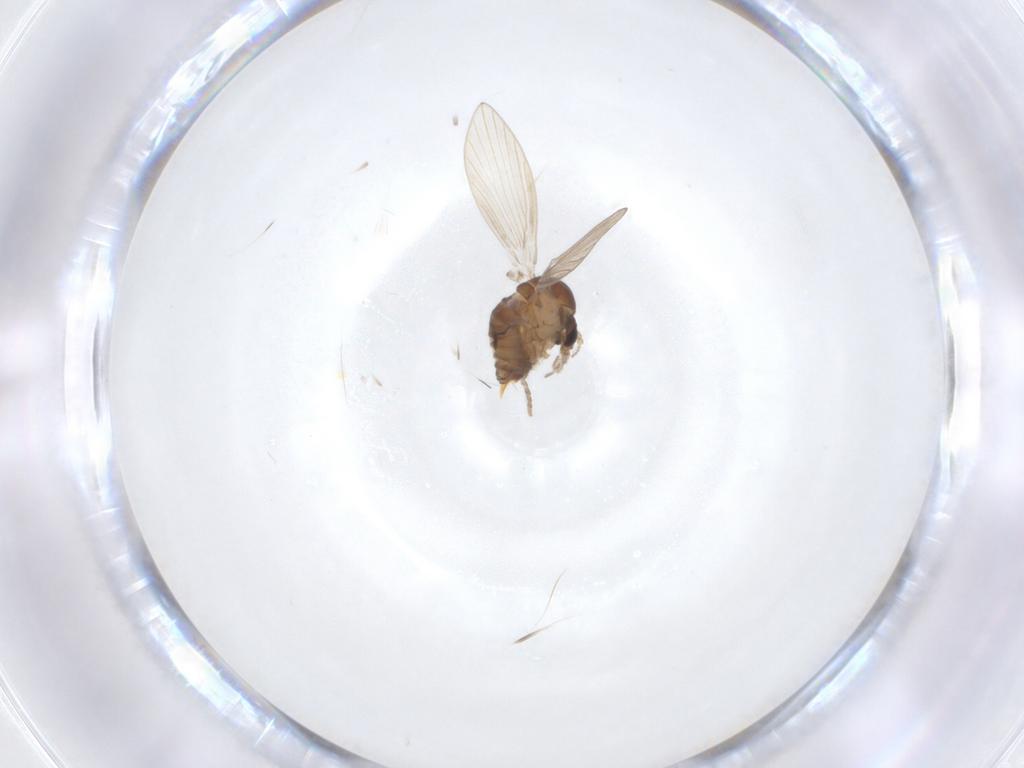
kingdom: Animalia
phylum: Arthropoda
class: Insecta
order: Diptera
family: Psychodidae
